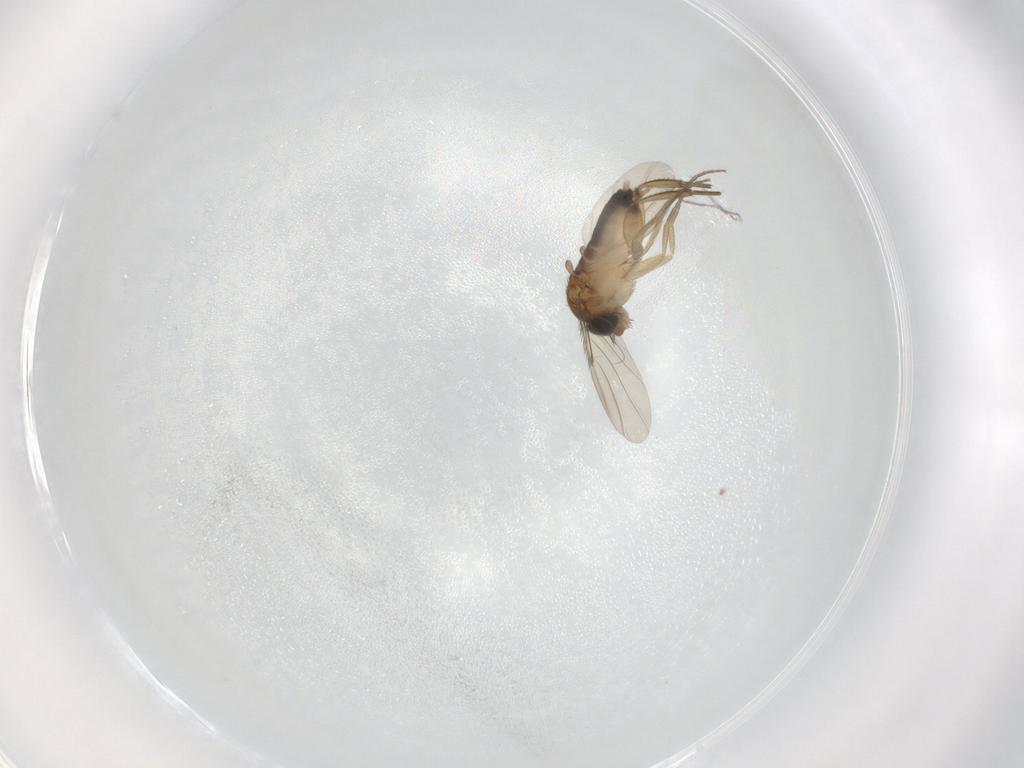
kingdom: Animalia
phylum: Arthropoda
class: Insecta
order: Diptera
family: Phoridae
